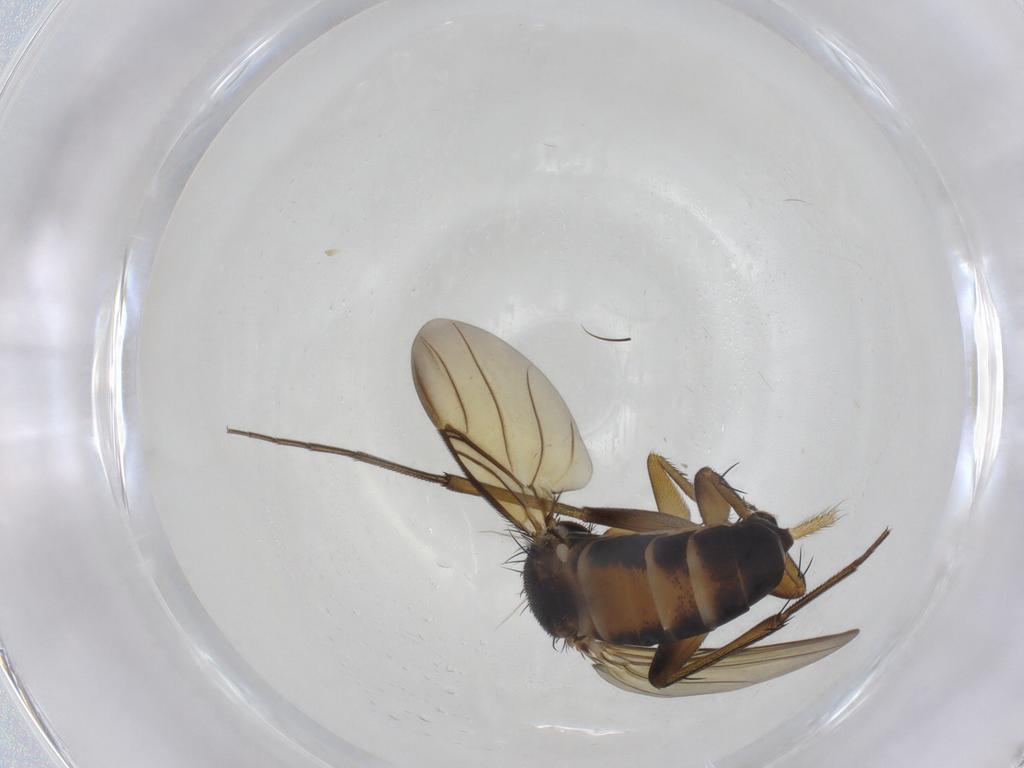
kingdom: Animalia
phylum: Arthropoda
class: Insecta
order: Diptera
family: Phoridae
